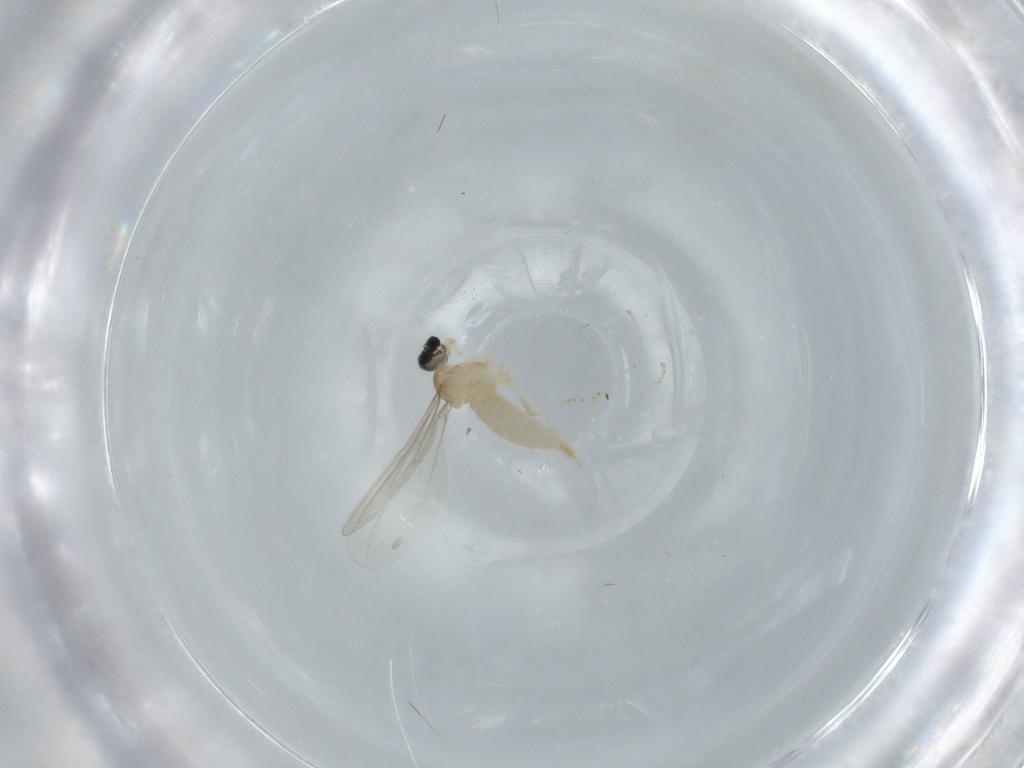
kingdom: Animalia
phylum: Arthropoda
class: Insecta
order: Diptera
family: Cecidomyiidae
